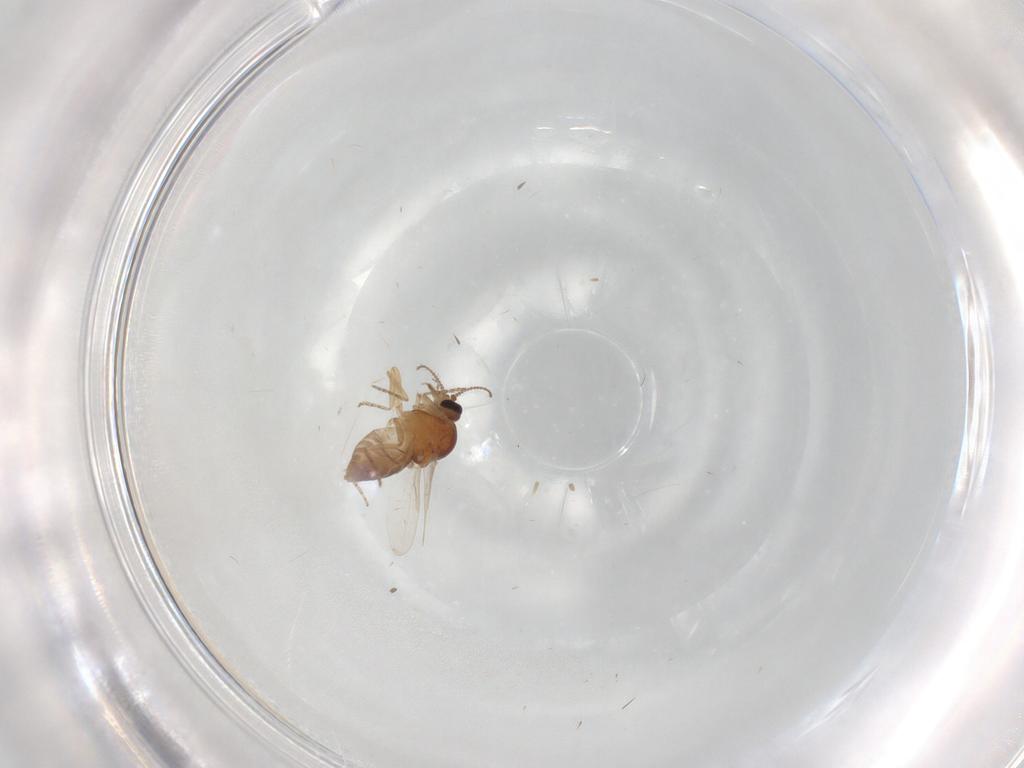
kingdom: Animalia
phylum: Arthropoda
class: Insecta
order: Diptera
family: Ceratopogonidae
